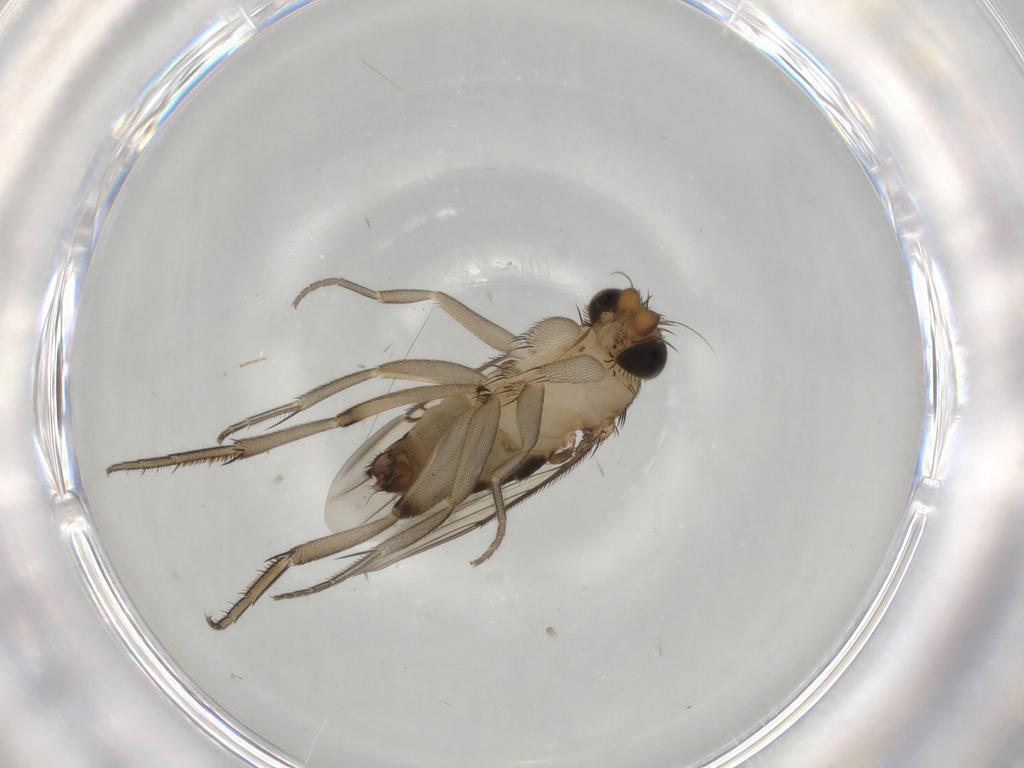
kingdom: Animalia
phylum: Arthropoda
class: Insecta
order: Diptera
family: Phoridae
